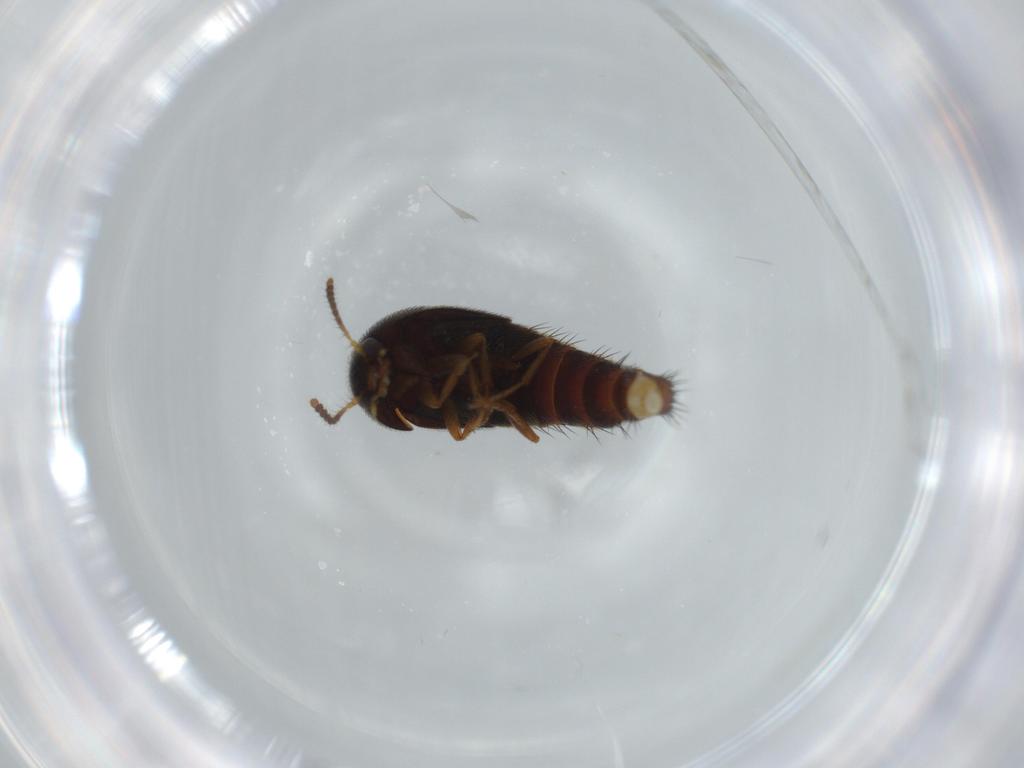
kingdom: Animalia
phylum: Arthropoda
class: Insecta
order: Coleoptera
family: Staphylinidae
